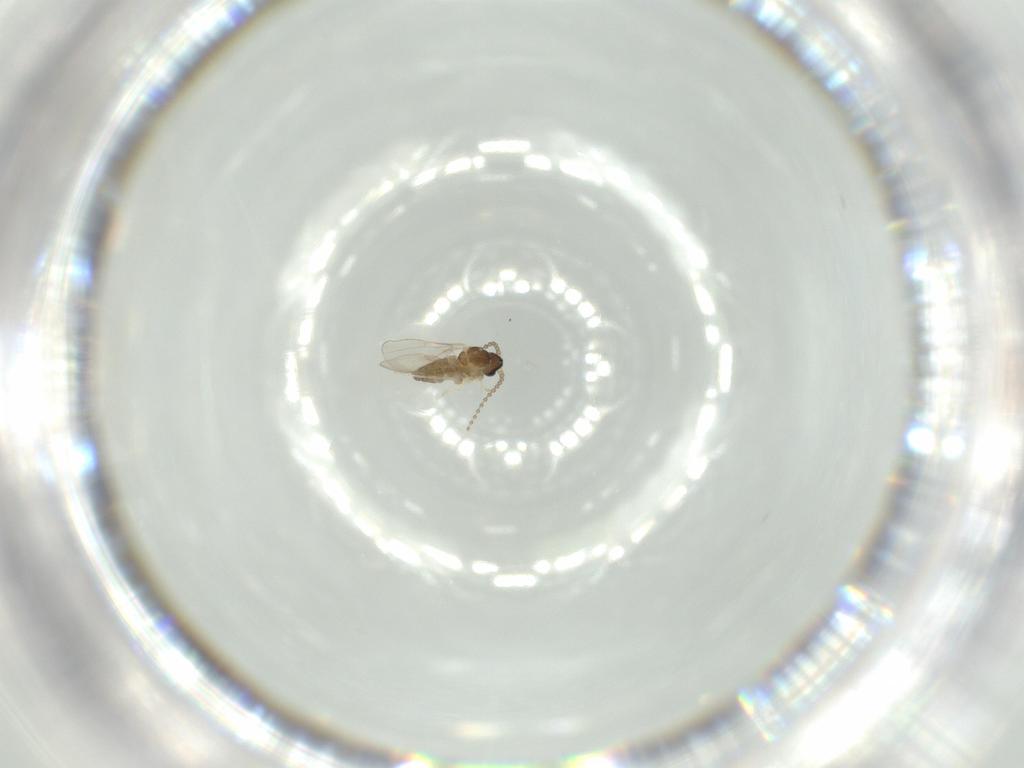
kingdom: Animalia
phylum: Arthropoda
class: Insecta
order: Diptera
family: Cecidomyiidae
